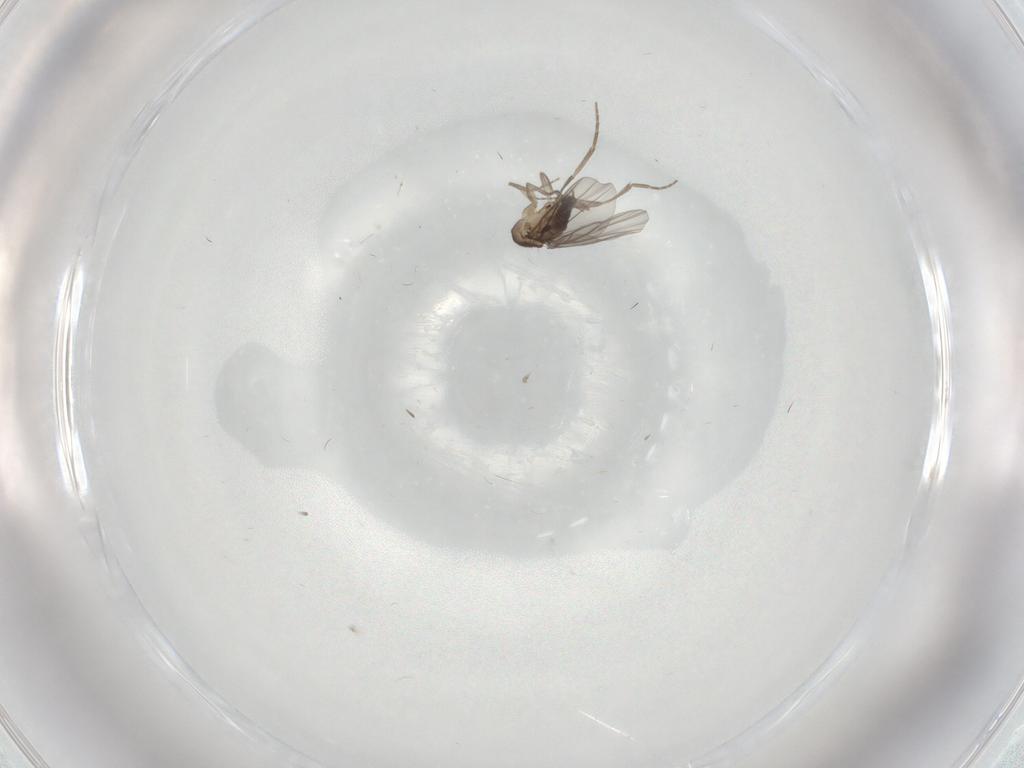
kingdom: Animalia
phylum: Arthropoda
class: Insecta
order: Diptera
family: Phoridae
